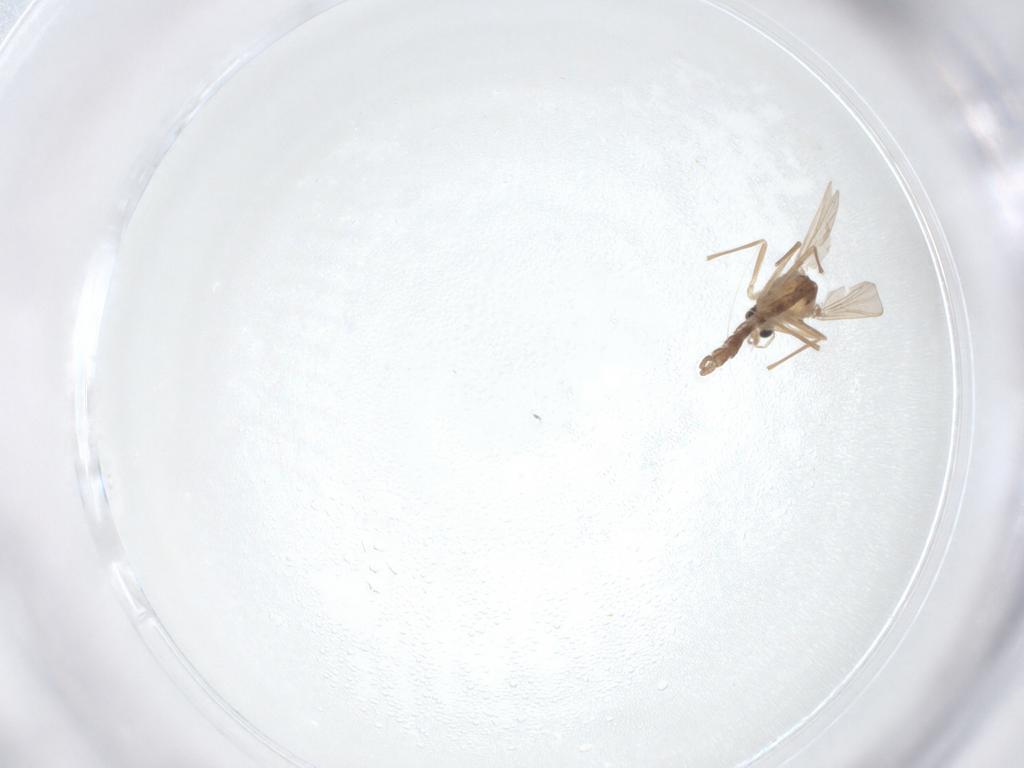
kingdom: Animalia
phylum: Arthropoda
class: Insecta
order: Diptera
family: Chironomidae
